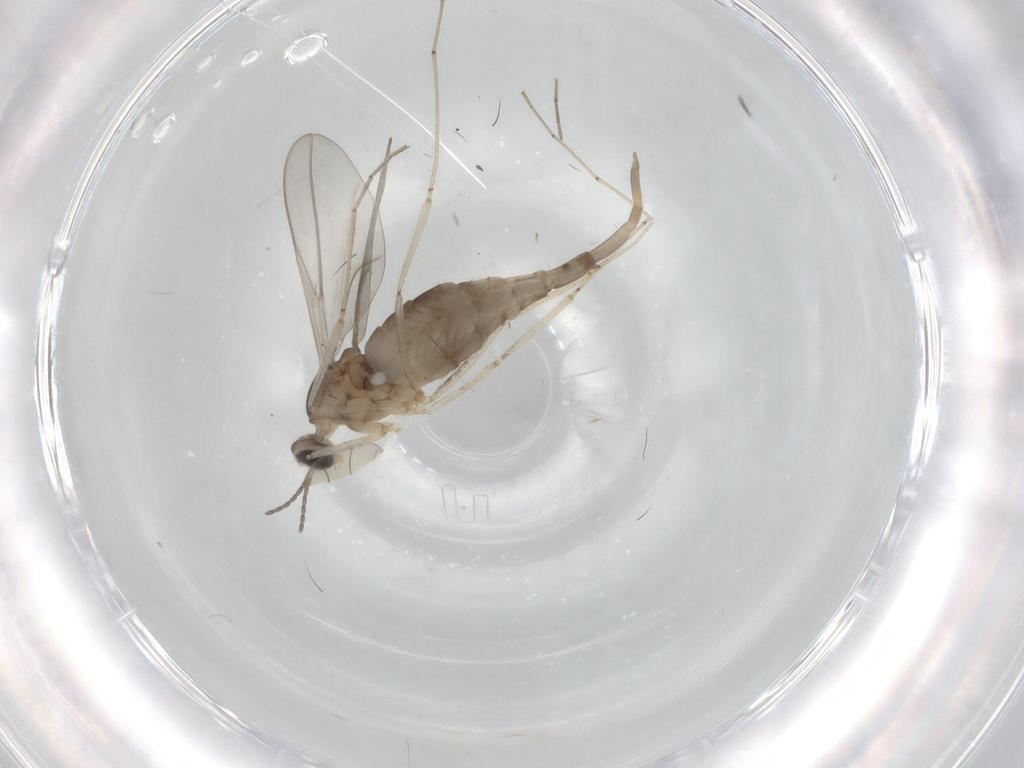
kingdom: Animalia
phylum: Arthropoda
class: Insecta
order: Diptera
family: Cecidomyiidae
